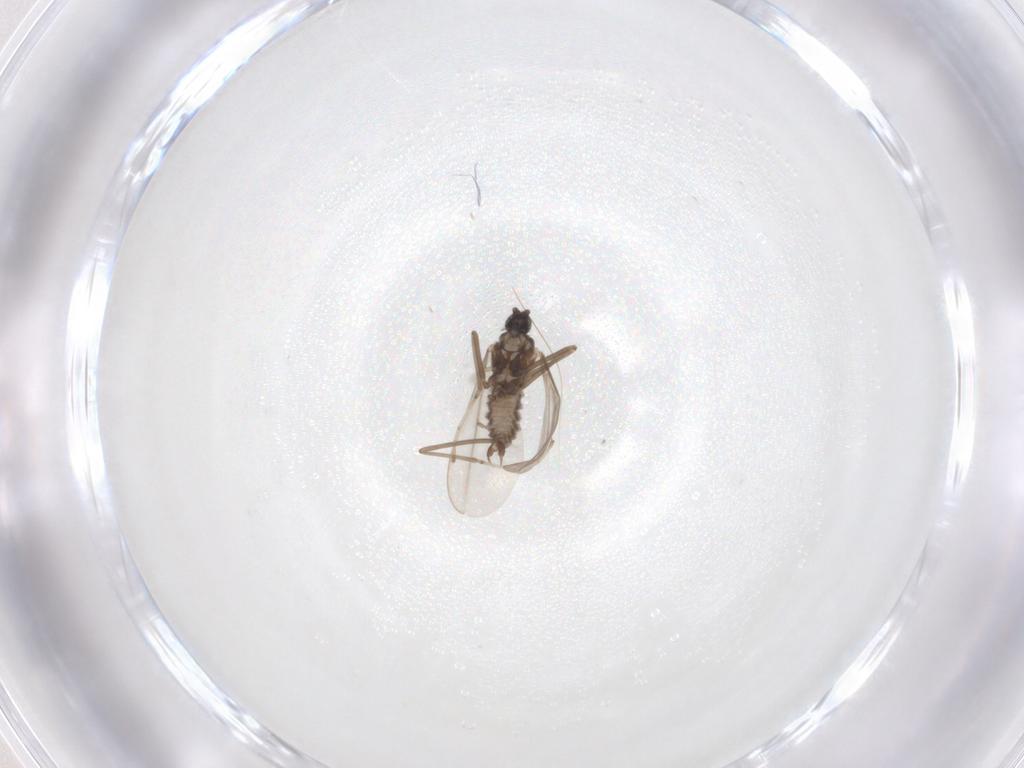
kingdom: Animalia
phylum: Arthropoda
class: Insecta
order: Diptera
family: Cecidomyiidae
